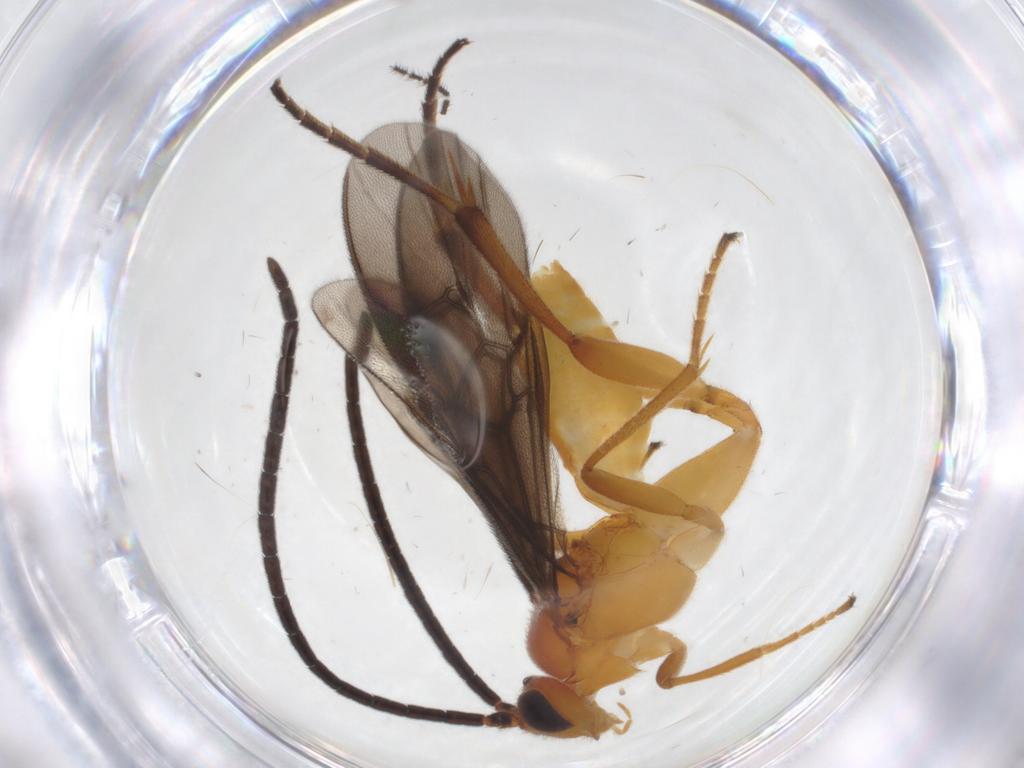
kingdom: Animalia
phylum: Arthropoda
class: Insecta
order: Hymenoptera
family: Braconidae
